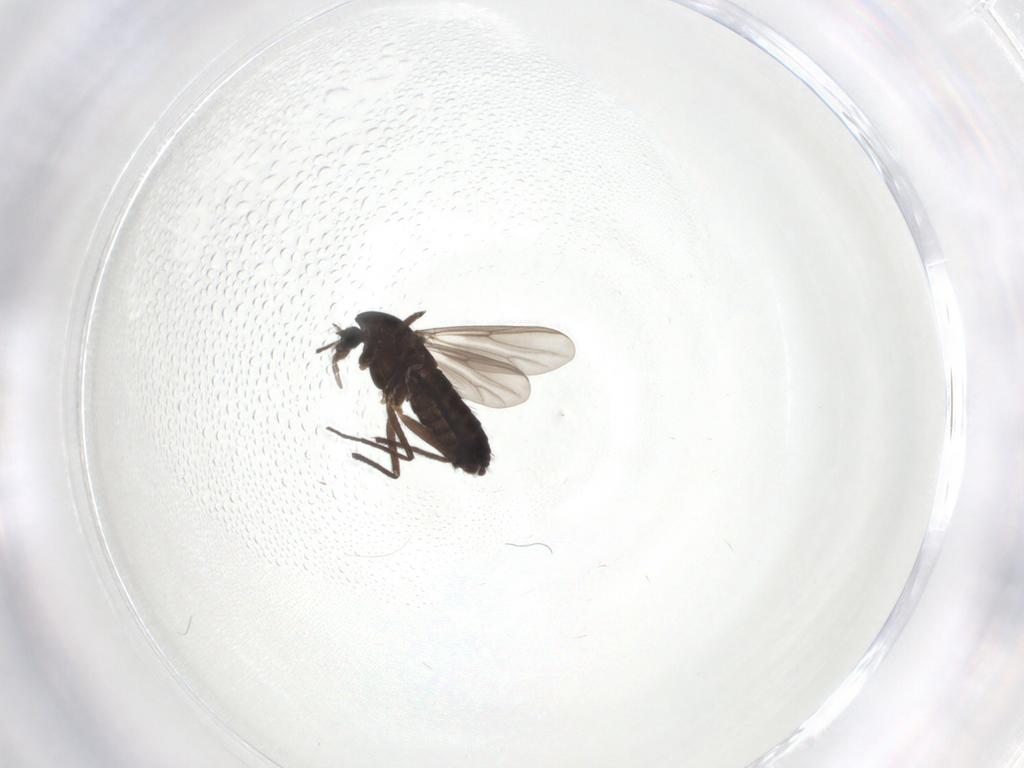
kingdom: Animalia
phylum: Arthropoda
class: Insecta
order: Diptera
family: Chironomidae
